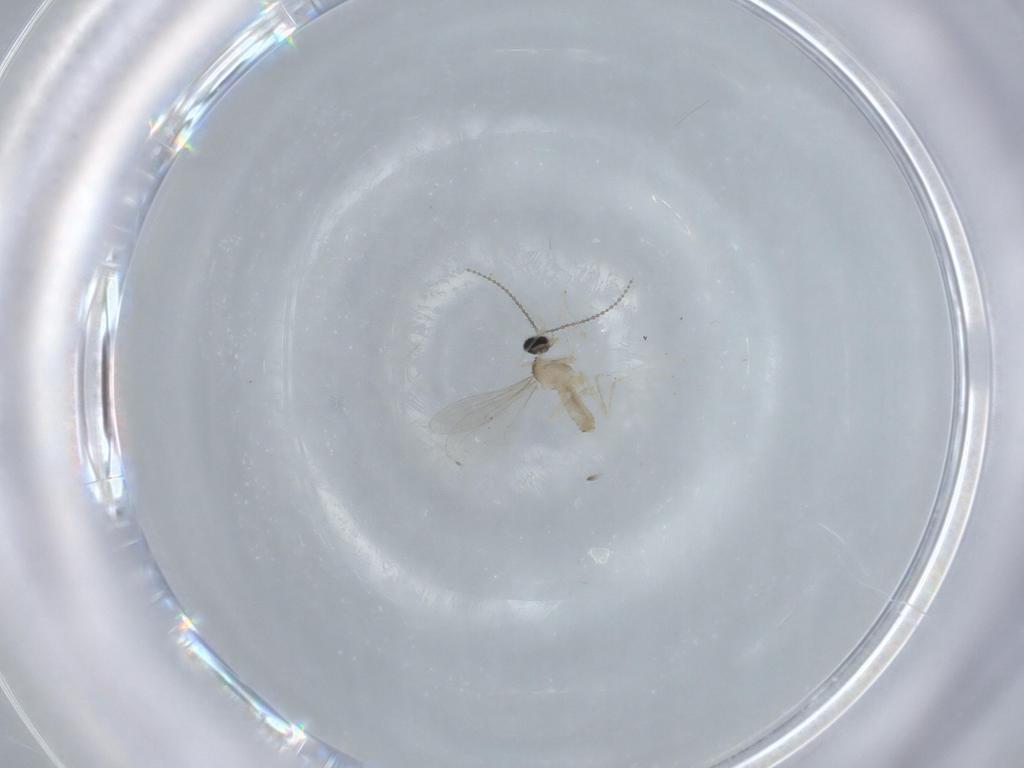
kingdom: Animalia
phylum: Arthropoda
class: Insecta
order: Diptera
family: Cecidomyiidae
